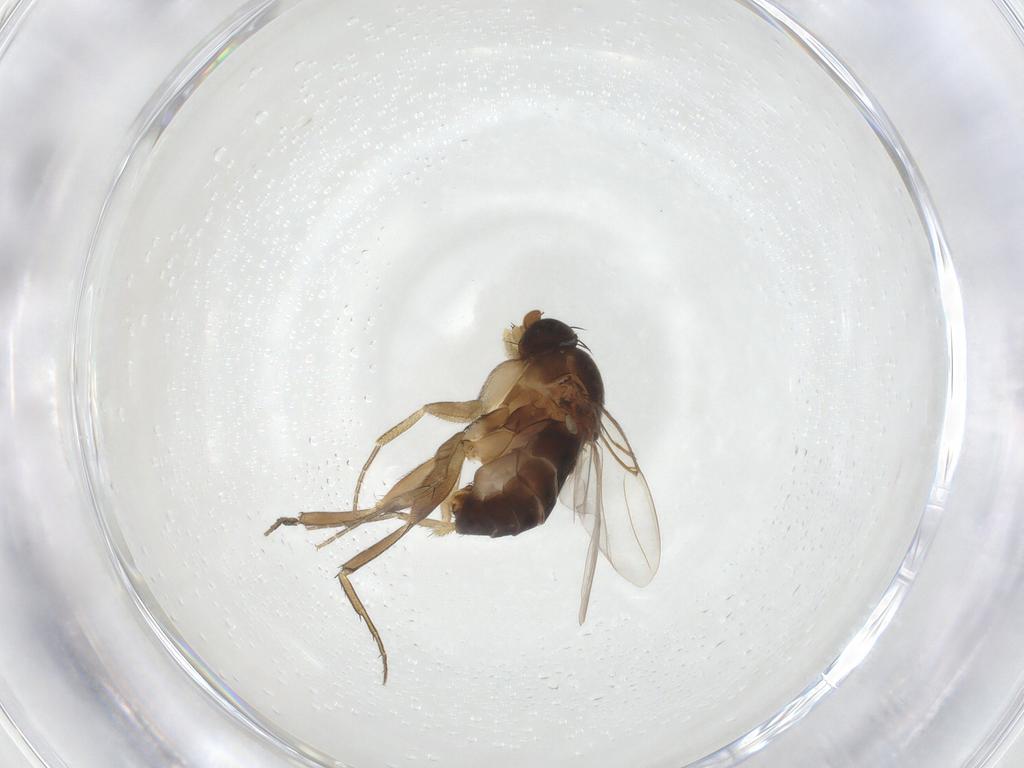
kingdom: Animalia
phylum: Arthropoda
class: Insecta
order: Diptera
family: Phoridae
